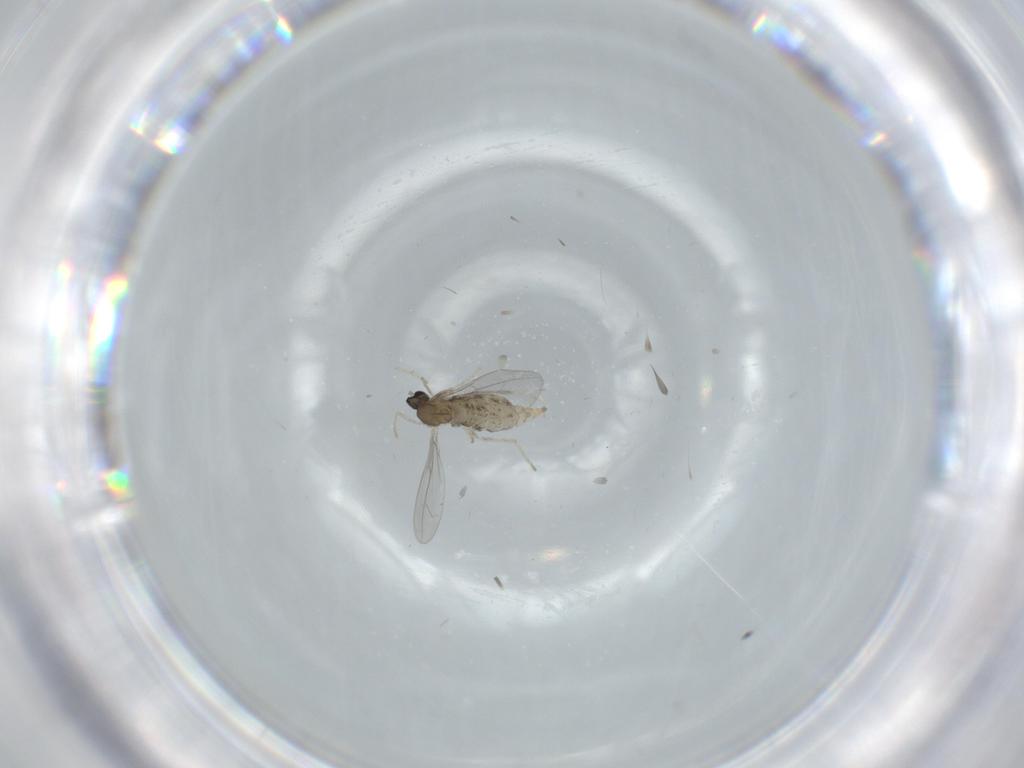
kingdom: Animalia
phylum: Arthropoda
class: Insecta
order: Diptera
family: Cecidomyiidae
